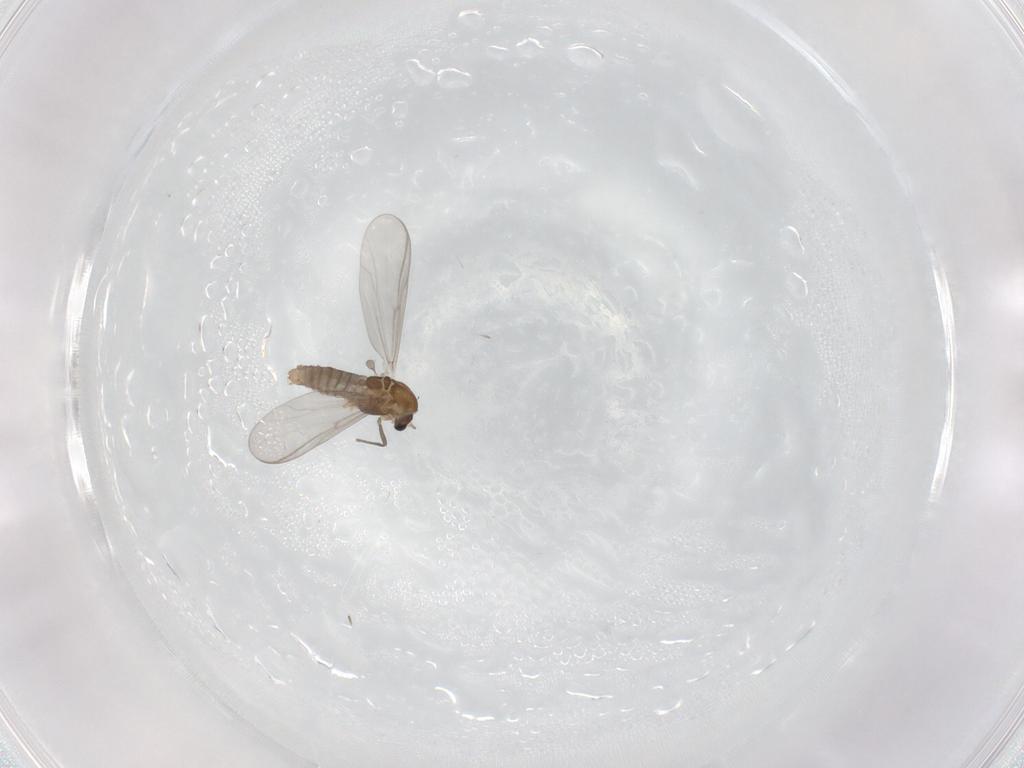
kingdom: Animalia
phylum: Arthropoda
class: Insecta
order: Diptera
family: Chironomidae
